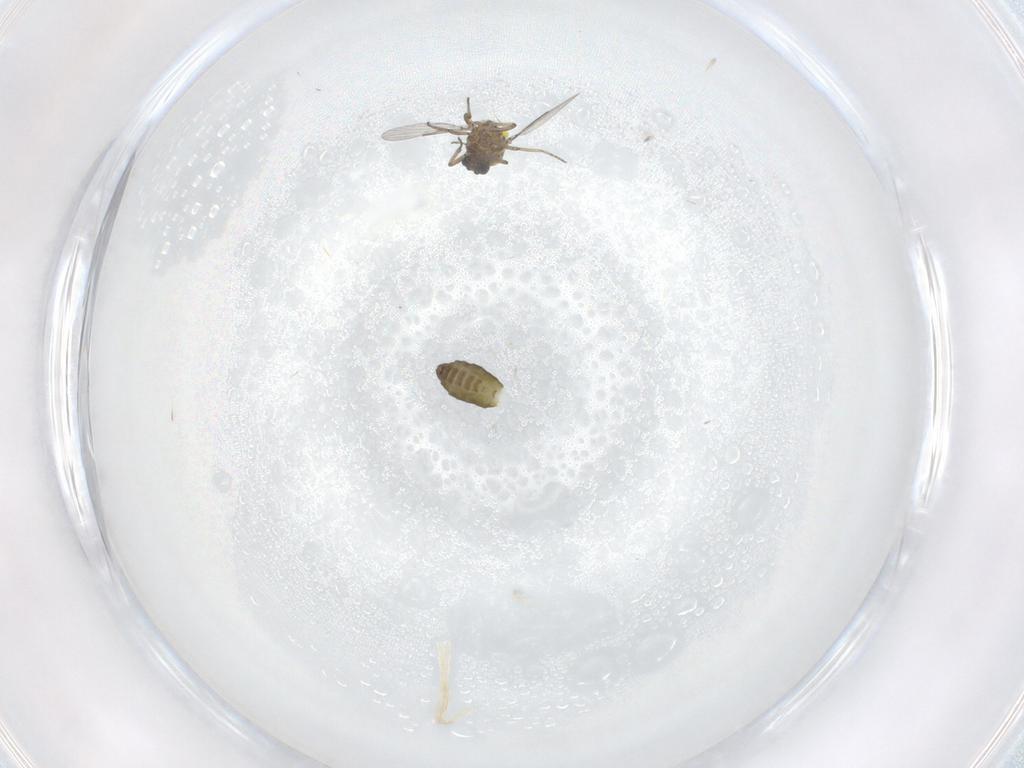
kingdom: Animalia
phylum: Arthropoda
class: Insecta
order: Diptera
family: Ceratopogonidae
